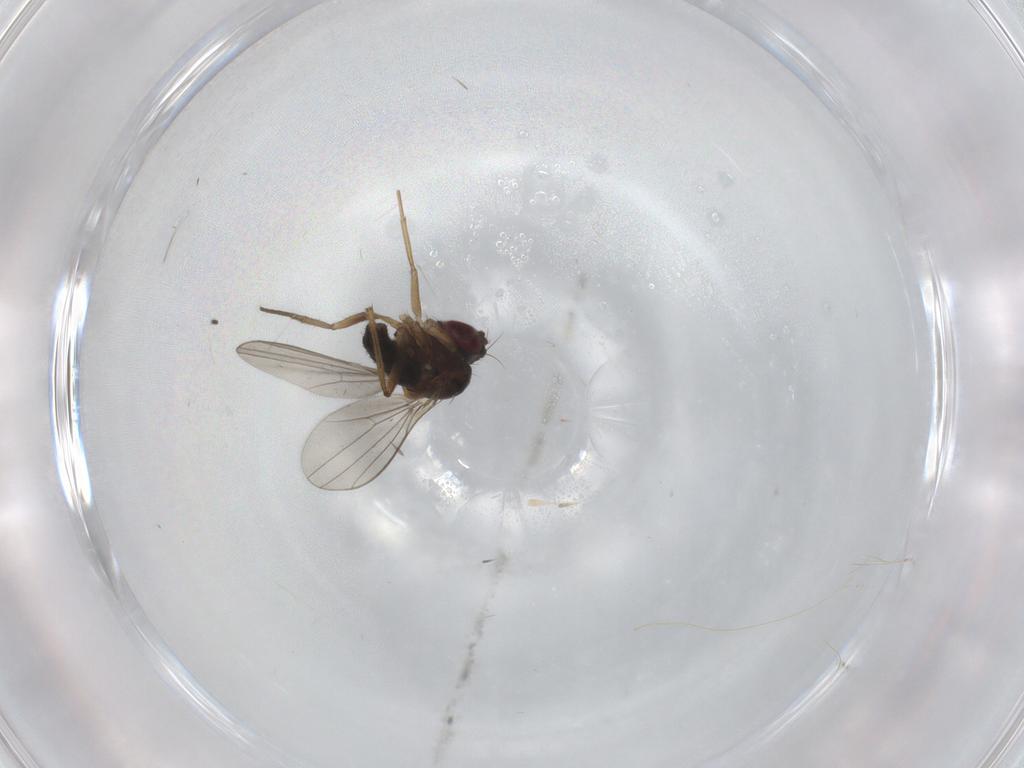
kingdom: Animalia
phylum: Arthropoda
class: Insecta
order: Diptera
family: Dolichopodidae
